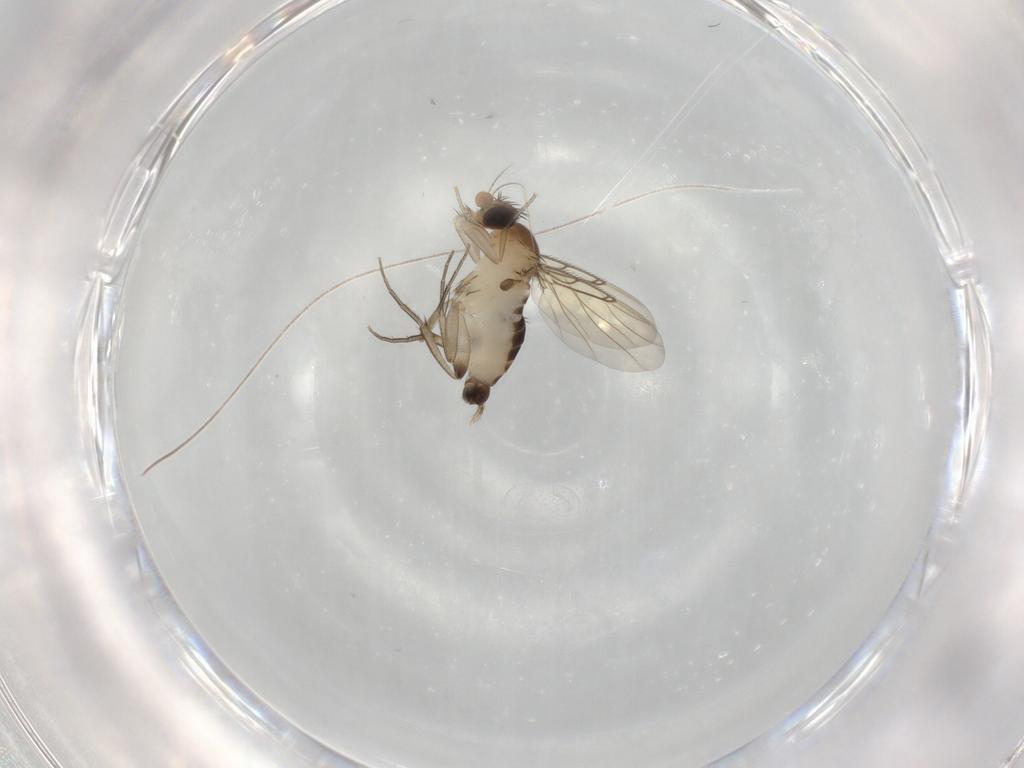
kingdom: Animalia
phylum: Arthropoda
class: Insecta
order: Diptera
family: Phoridae
